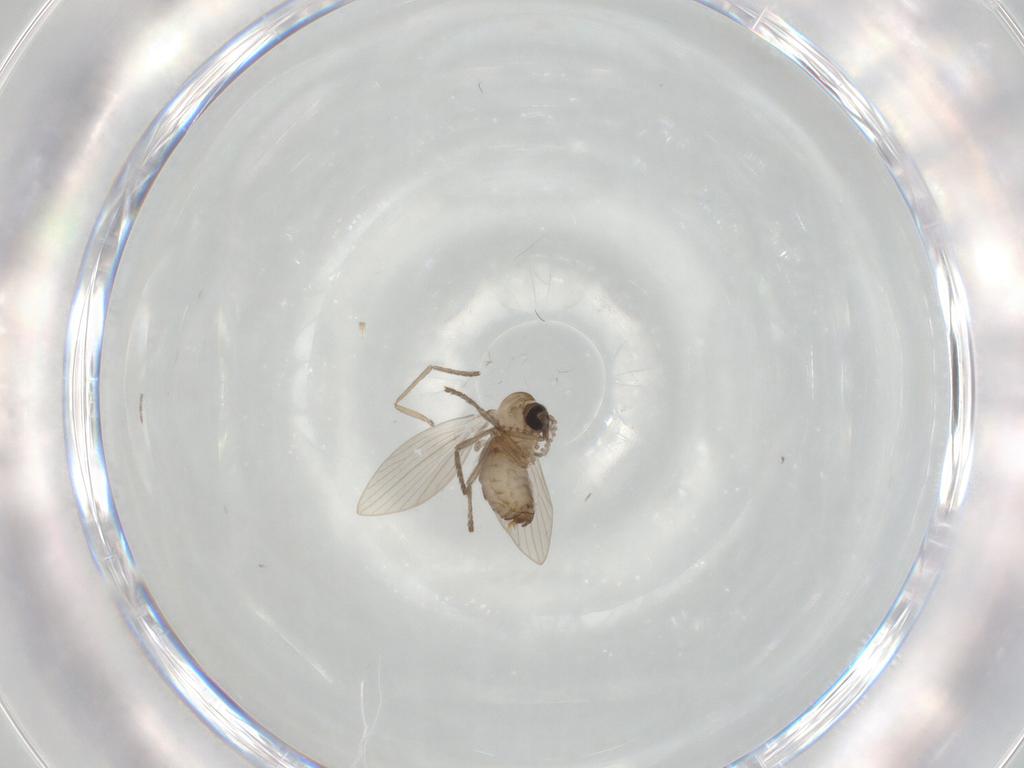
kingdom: Animalia
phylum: Arthropoda
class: Insecta
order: Diptera
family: Psychodidae
